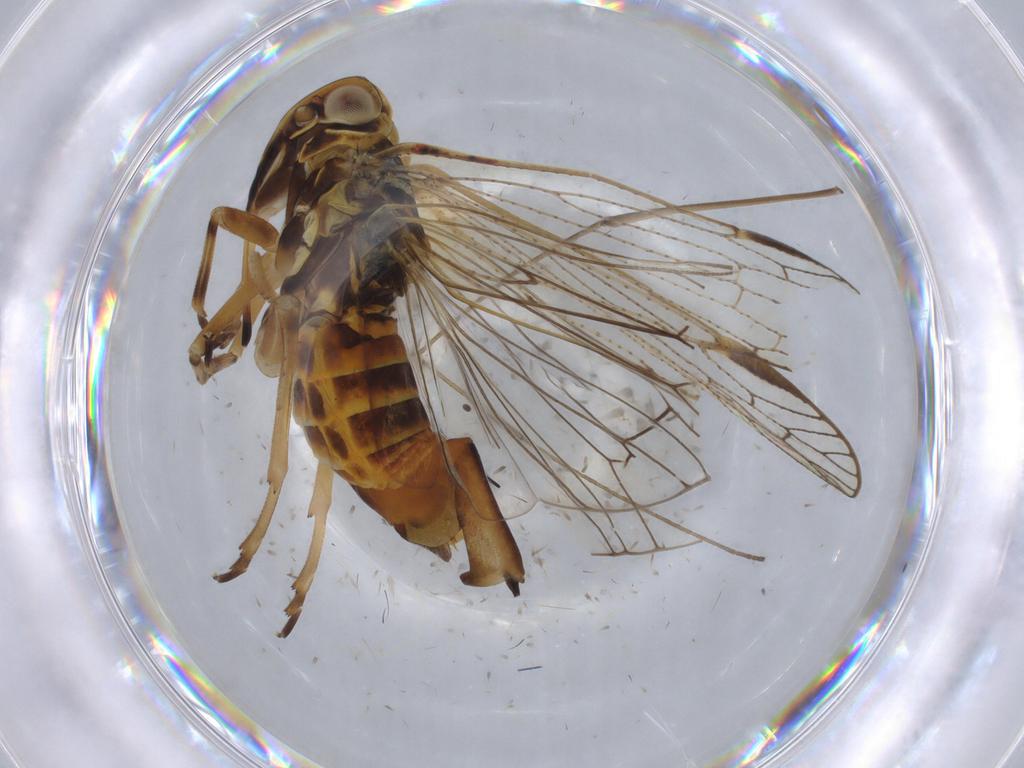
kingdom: Animalia
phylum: Arthropoda
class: Insecta
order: Hemiptera
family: Cixiidae
